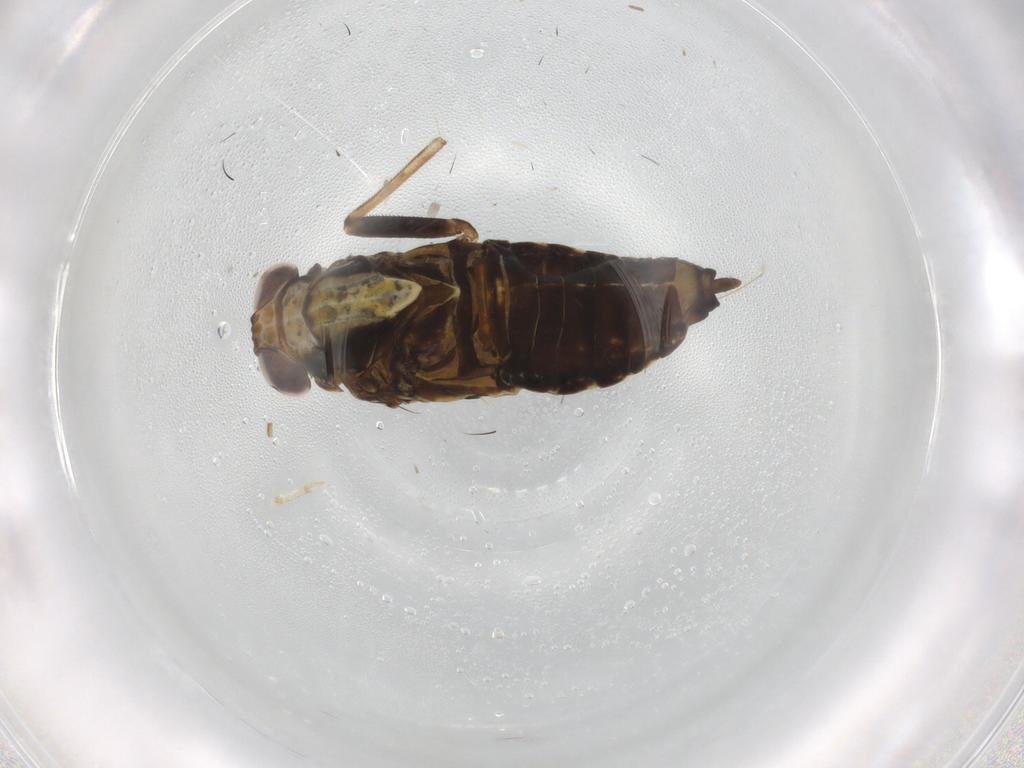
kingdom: Animalia
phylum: Arthropoda
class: Insecta
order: Hemiptera
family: Delphacidae
